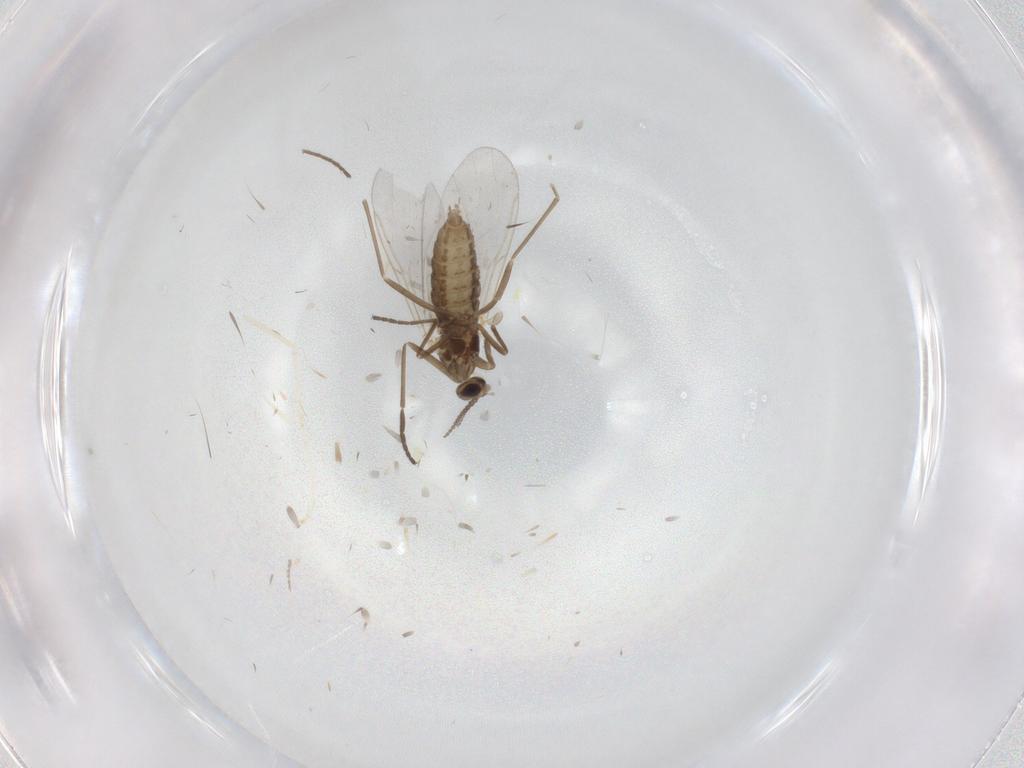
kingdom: Animalia
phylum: Arthropoda
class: Insecta
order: Diptera
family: Cecidomyiidae
